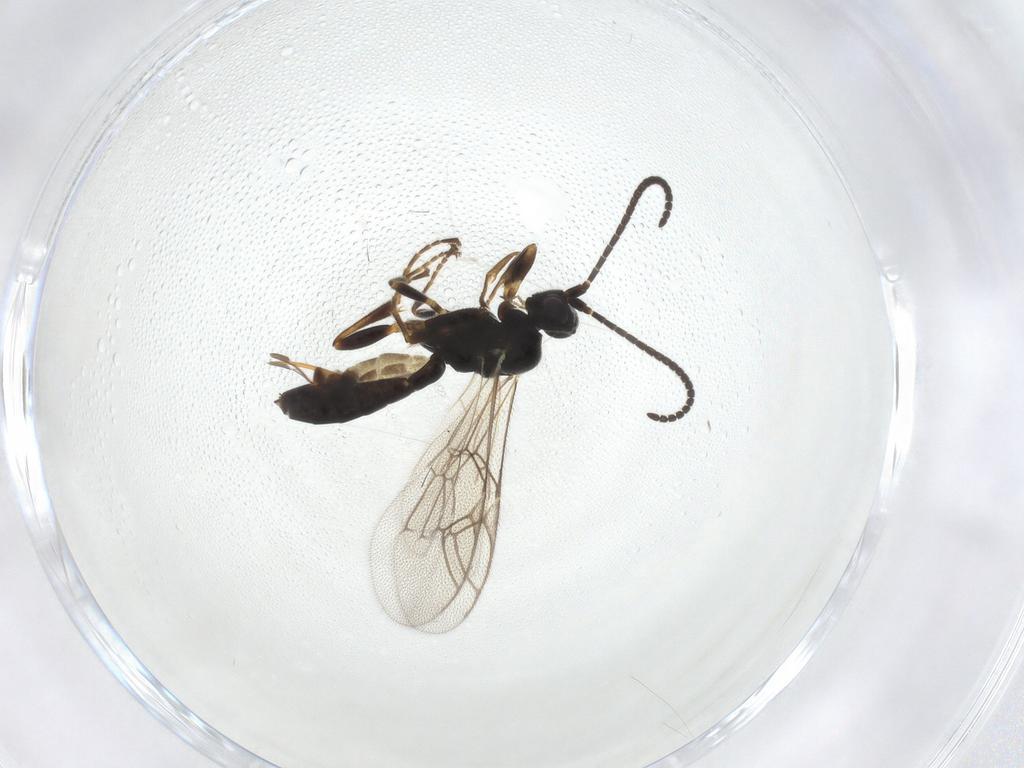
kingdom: Animalia
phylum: Arthropoda
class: Insecta
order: Hymenoptera
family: Ichneumonidae
